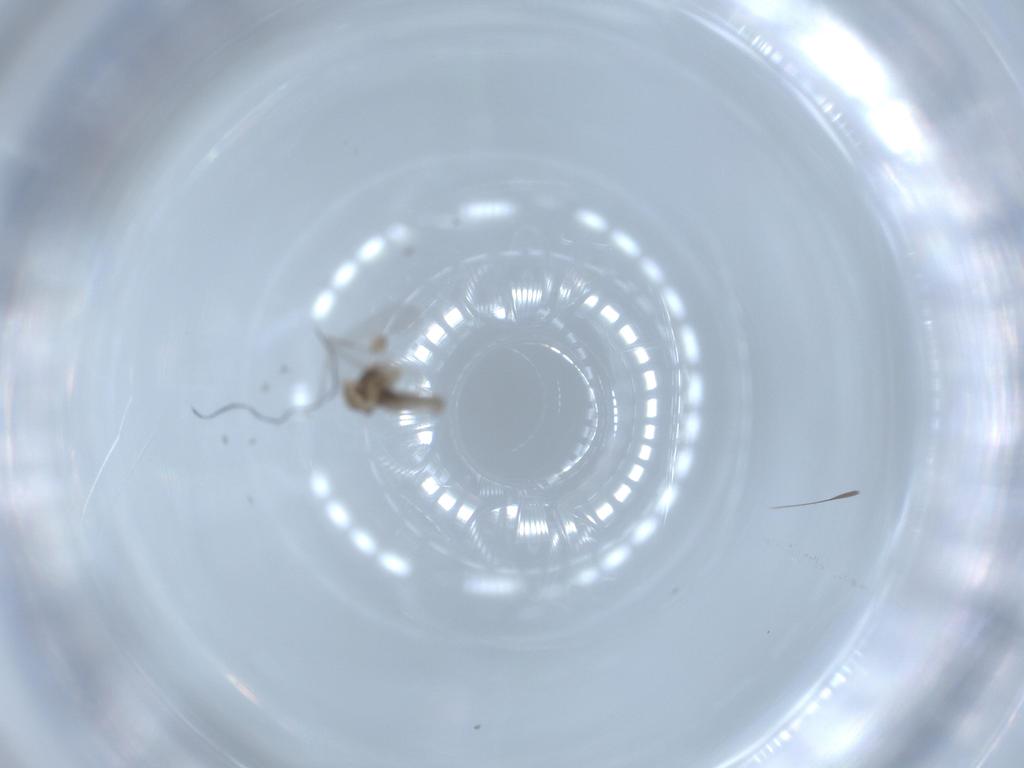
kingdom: Animalia
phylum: Arthropoda
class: Insecta
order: Diptera
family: Cecidomyiidae
